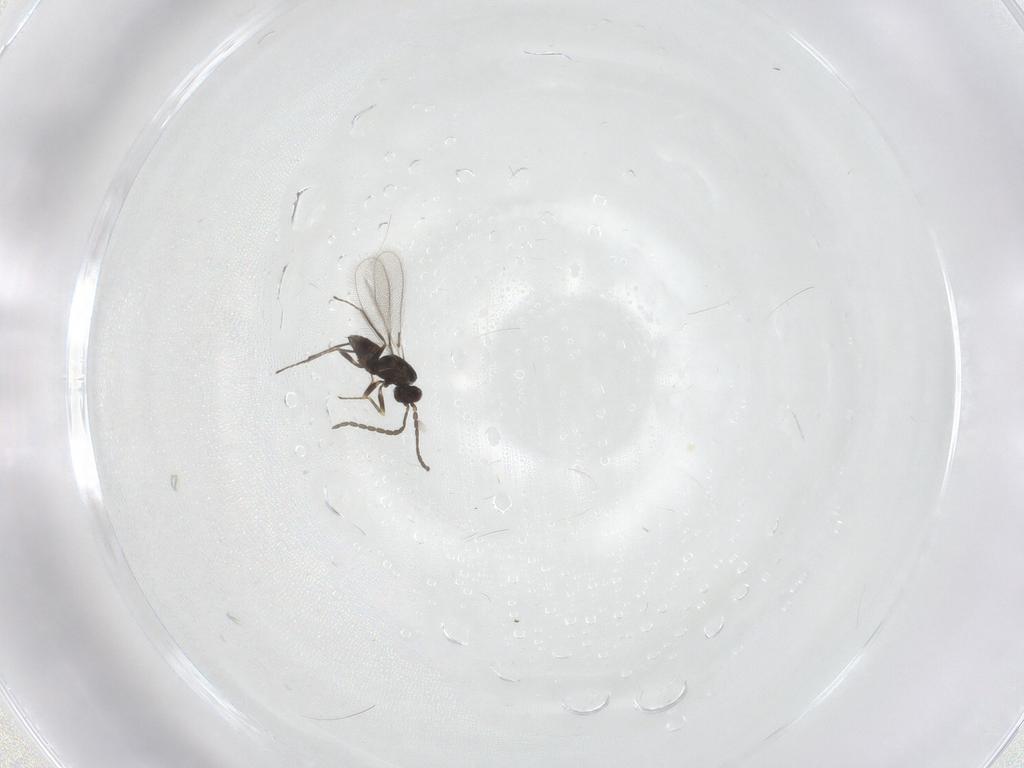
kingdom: Animalia
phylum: Arthropoda
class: Insecta
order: Hymenoptera
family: Mymaridae
